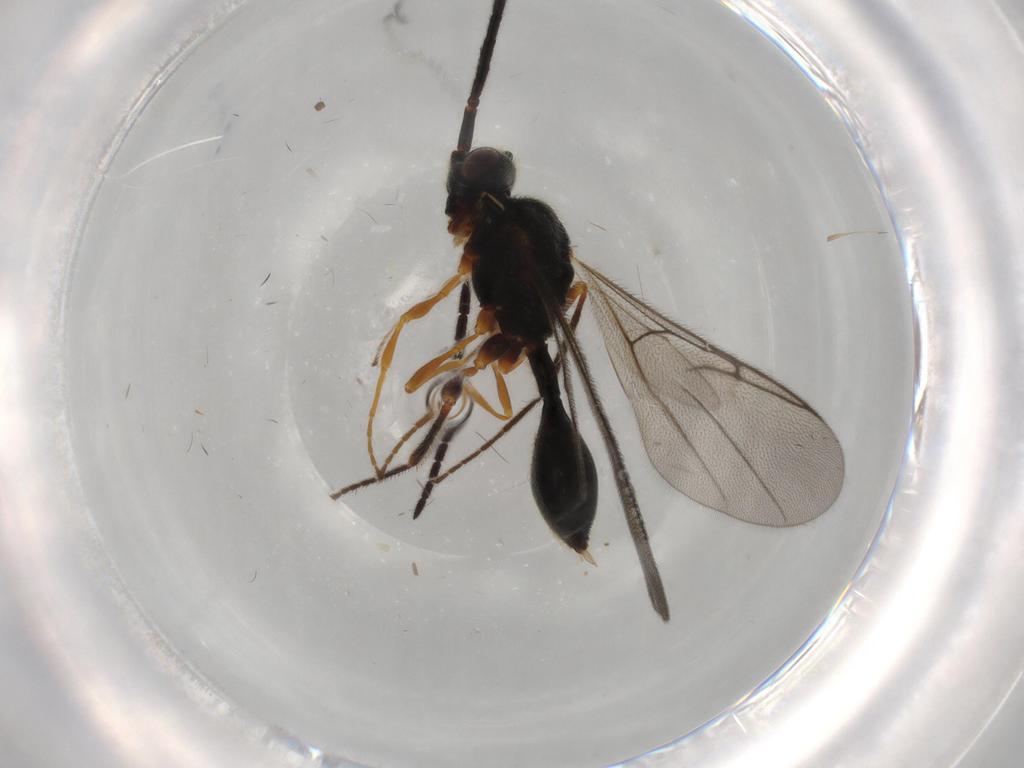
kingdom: Animalia
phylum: Arthropoda
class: Insecta
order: Hymenoptera
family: Diapriidae
